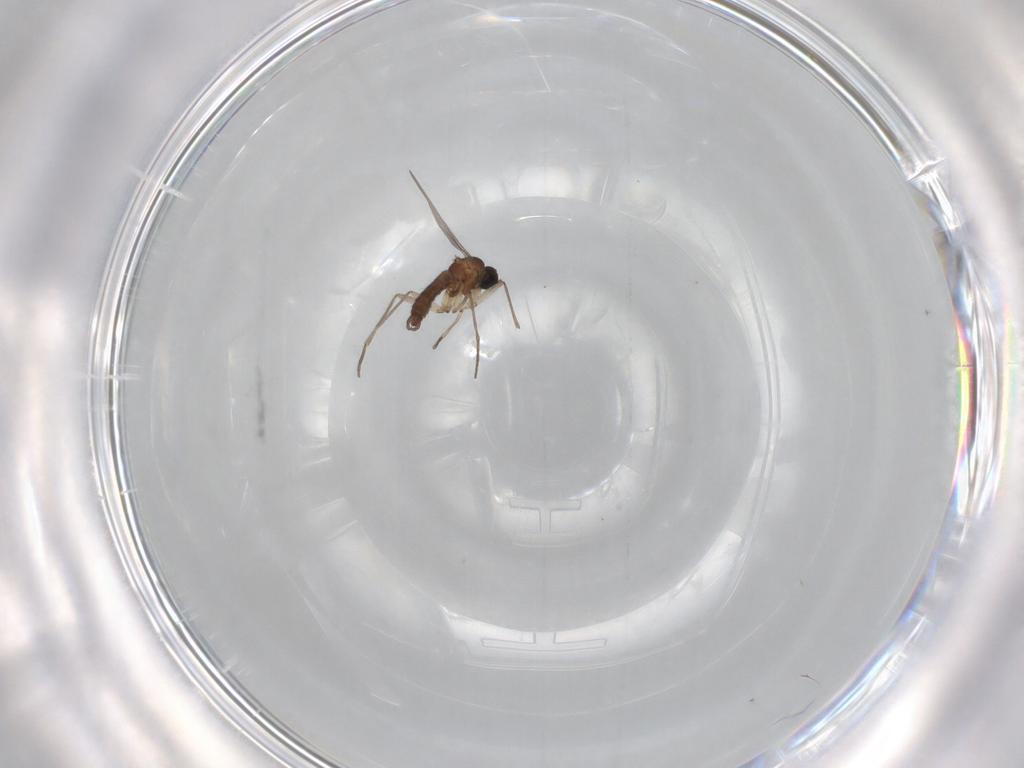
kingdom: Animalia
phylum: Arthropoda
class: Insecta
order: Diptera
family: Sciaridae
